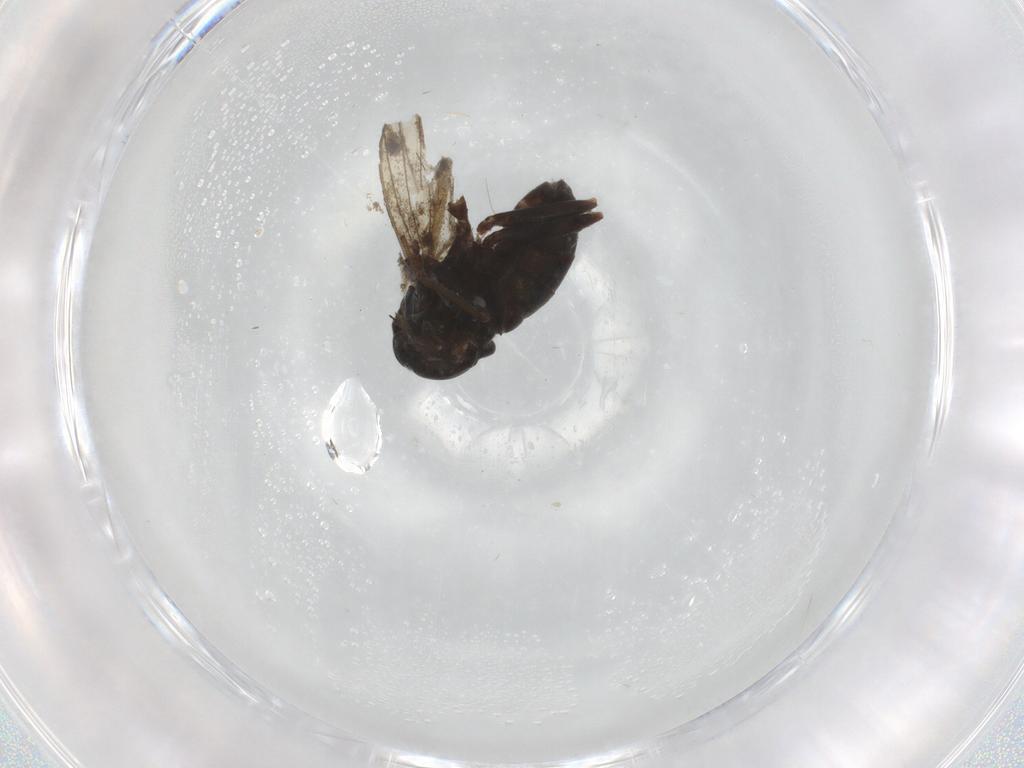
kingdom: Animalia
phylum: Arthropoda
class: Insecta
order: Diptera
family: Cecidomyiidae
